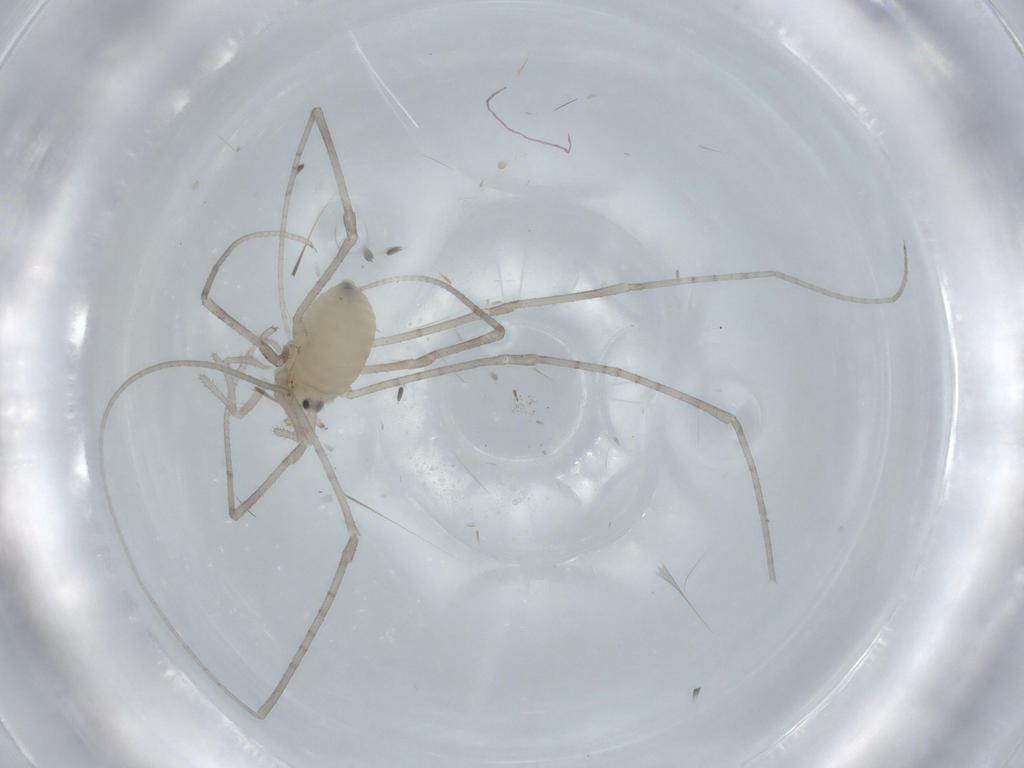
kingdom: Animalia
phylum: Arthropoda
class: Arachnida
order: Opiliones
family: Sclerosomatidae
